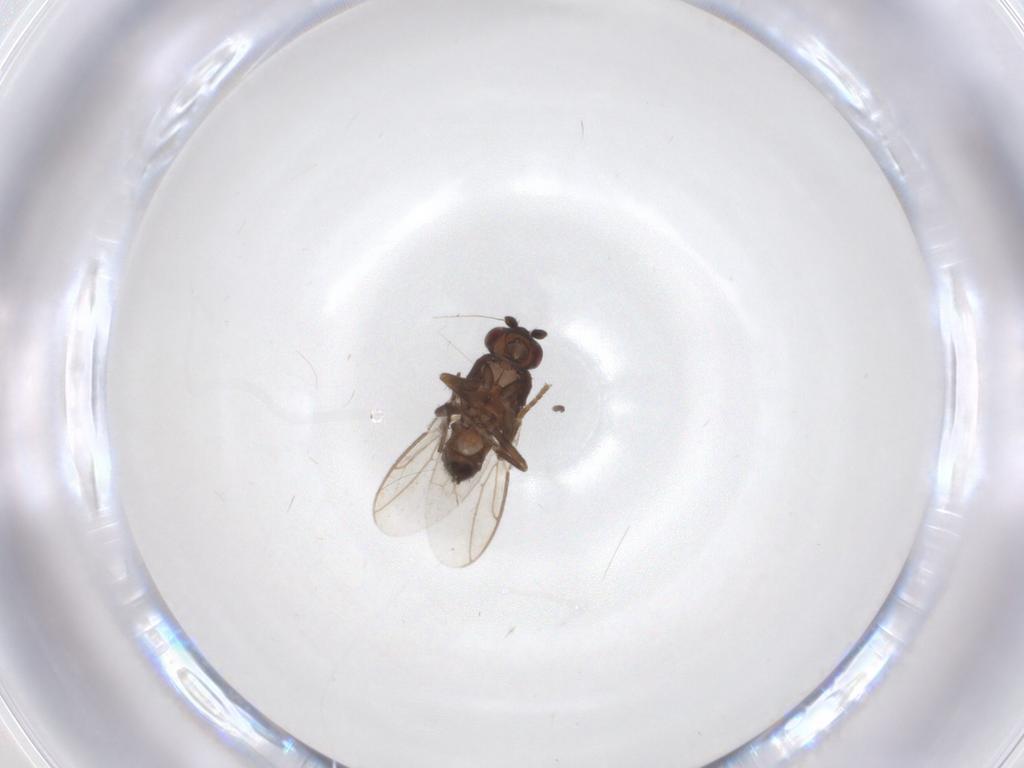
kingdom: Animalia
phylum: Arthropoda
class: Insecta
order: Diptera
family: Chironomidae
